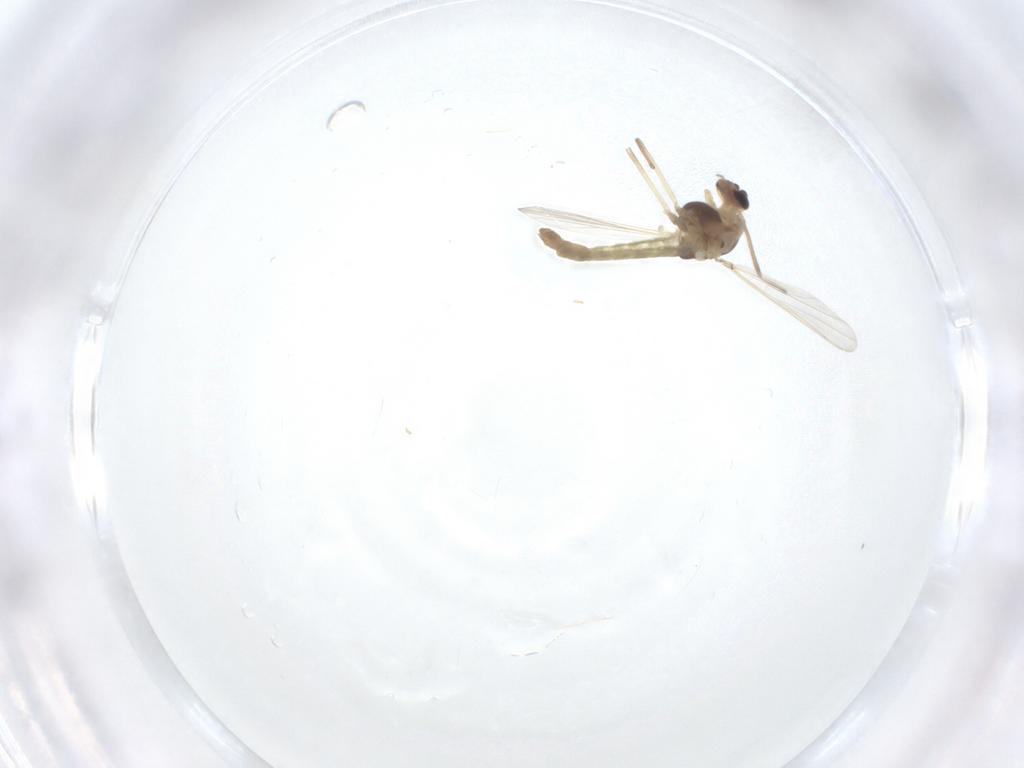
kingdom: Animalia
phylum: Arthropoda
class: Insecta
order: Diptera
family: Chironomidae
